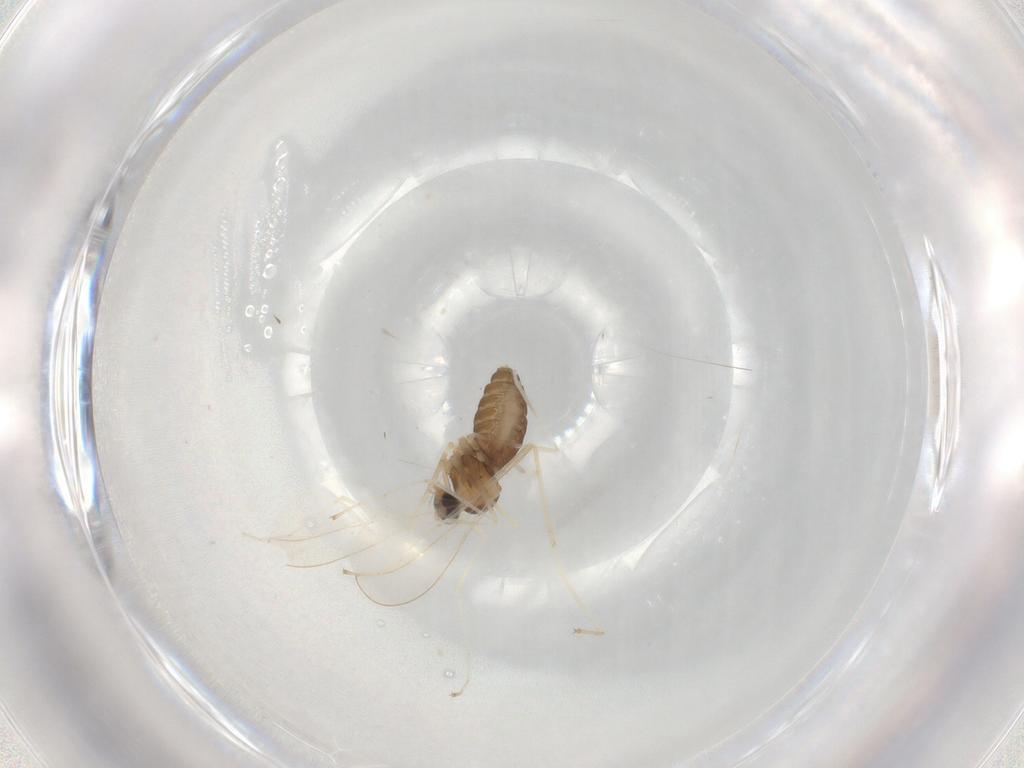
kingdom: Animalia
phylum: Arthropoda
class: Insecta
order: Diptera
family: Cecidomyiidae
